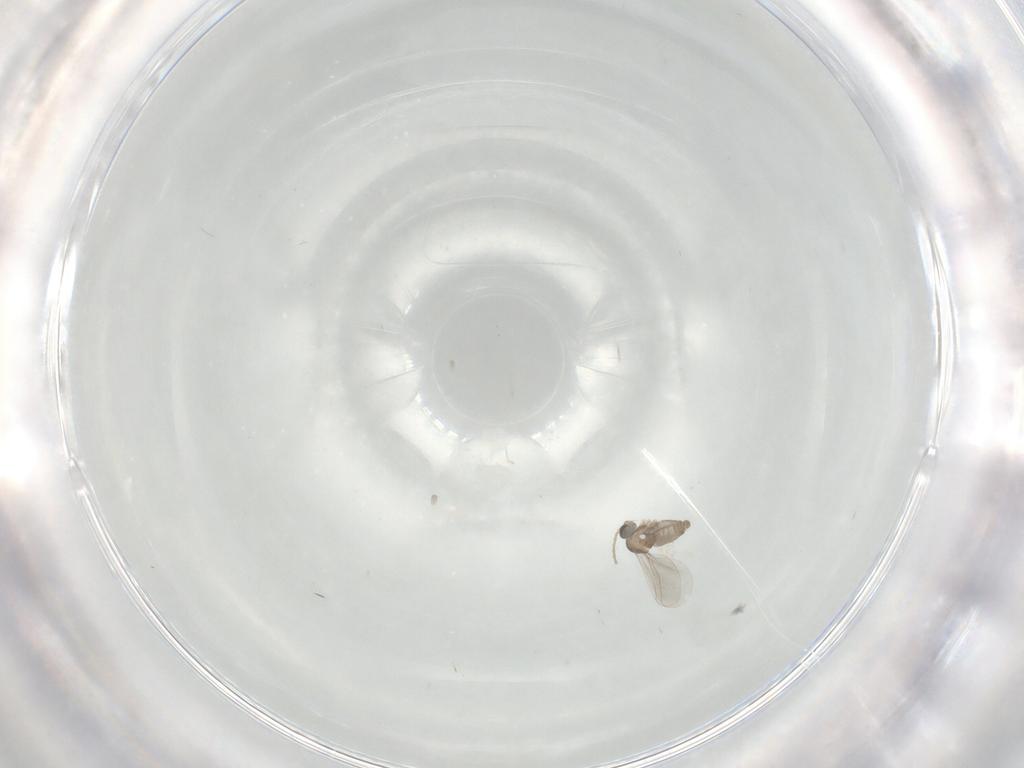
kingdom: Animalia
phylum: Arthropoda
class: Insecta
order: Diptera
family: Cecidomyiidae
